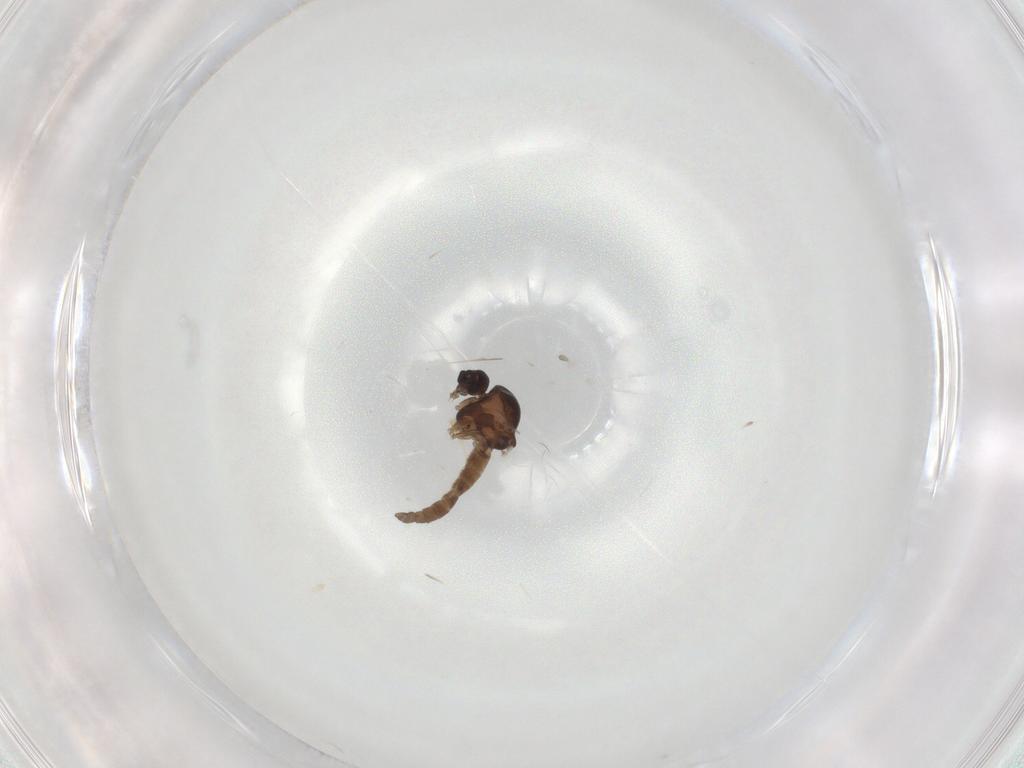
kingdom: Animalia
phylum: Arthropoda
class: Insecta
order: Diptera
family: Ceratopogonidae
